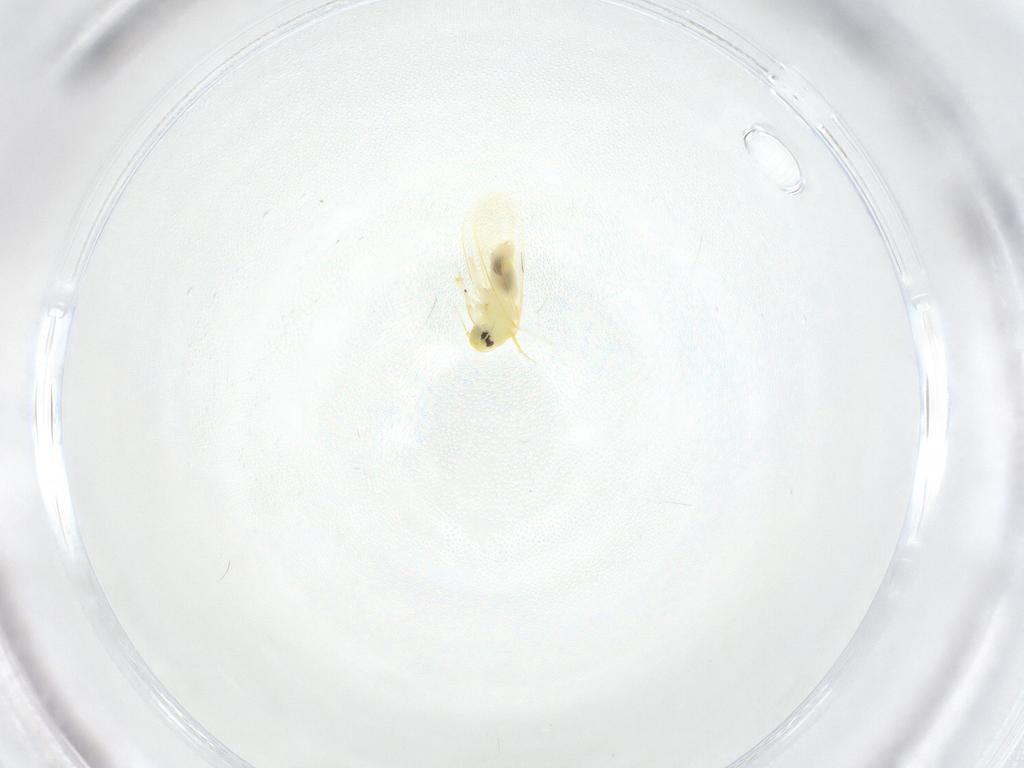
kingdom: Animalia
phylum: Arthropoda
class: Insecta
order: Hemiptera
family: Aleyrodidae
